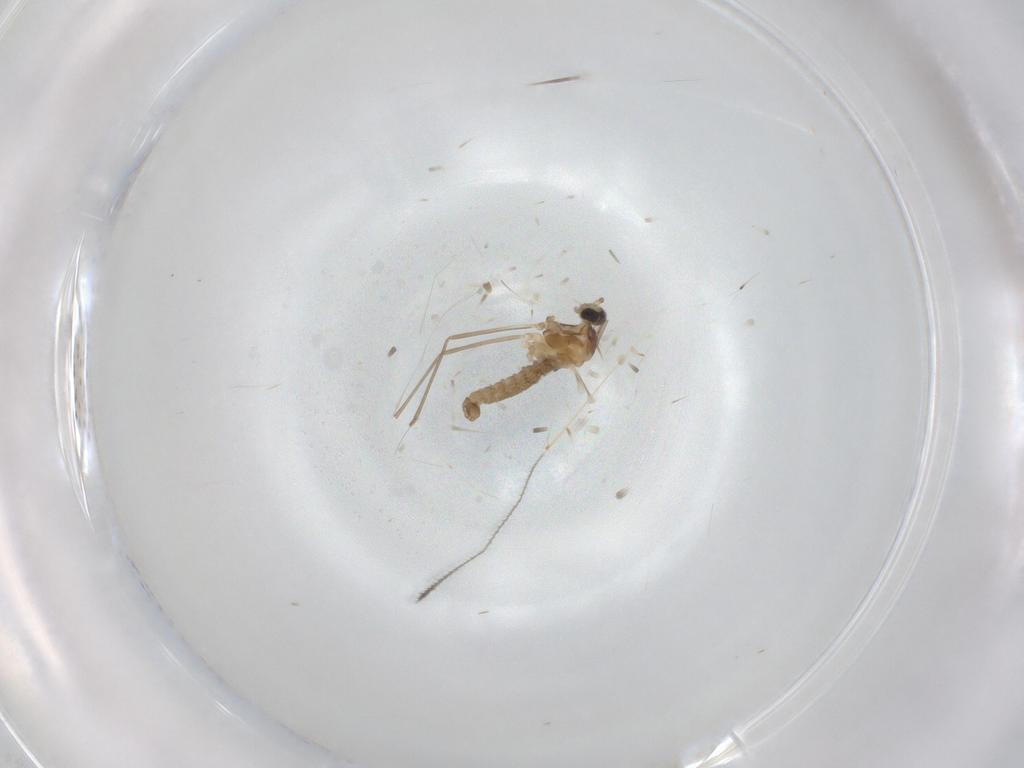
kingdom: Animalia
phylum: Arthropoda
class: Insecta
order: Diptera
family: Cecidomyiidae
